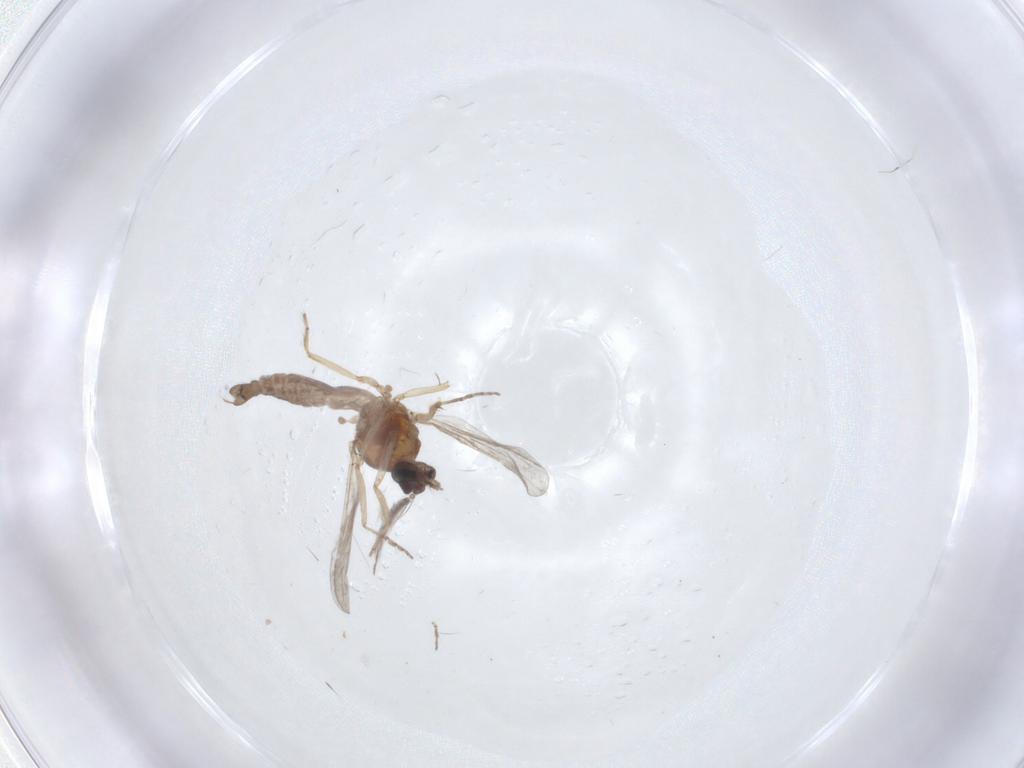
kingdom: Animalia
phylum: Arthropoda
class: Insecta
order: Diptera
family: Ceratopogonidae
